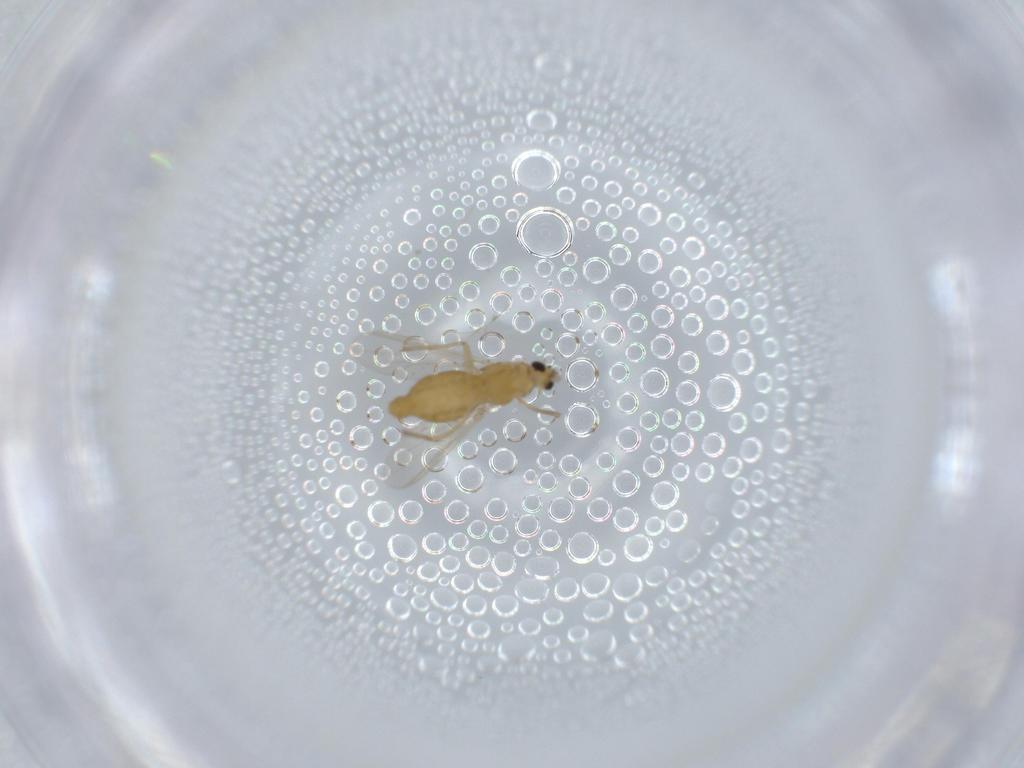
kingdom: Animalia
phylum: Arthropoda
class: Insecta
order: Diptera
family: Chironomidae
